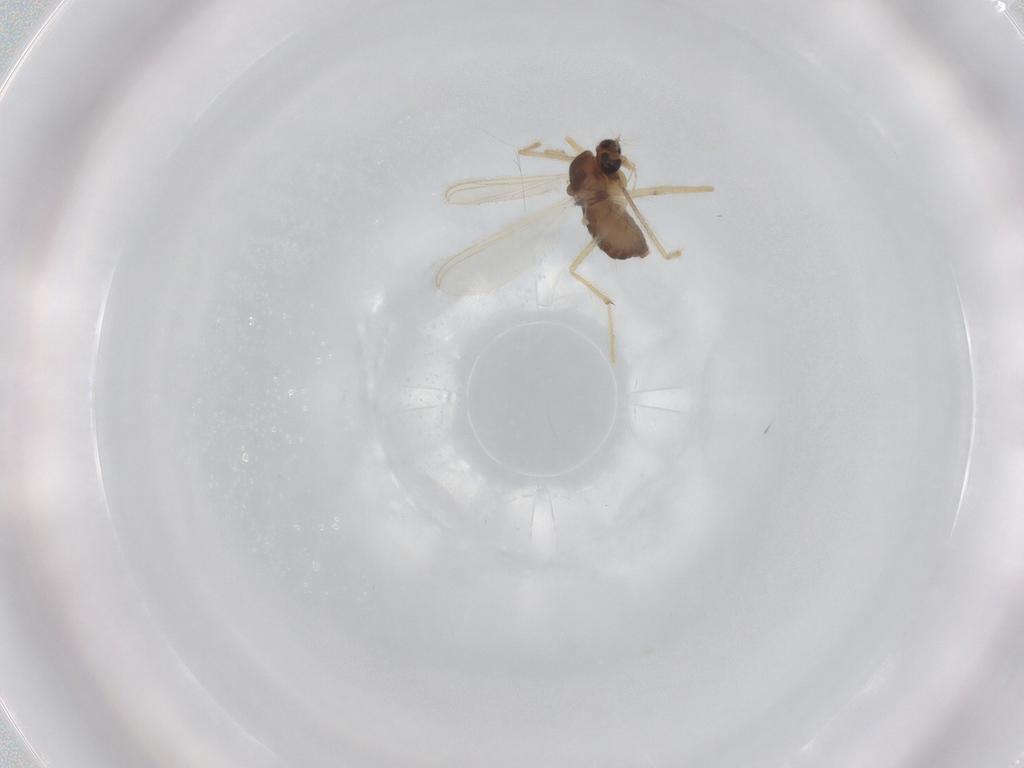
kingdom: Animalia
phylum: Arthropoda
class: Insecta
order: Diptera
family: Chironomidae
